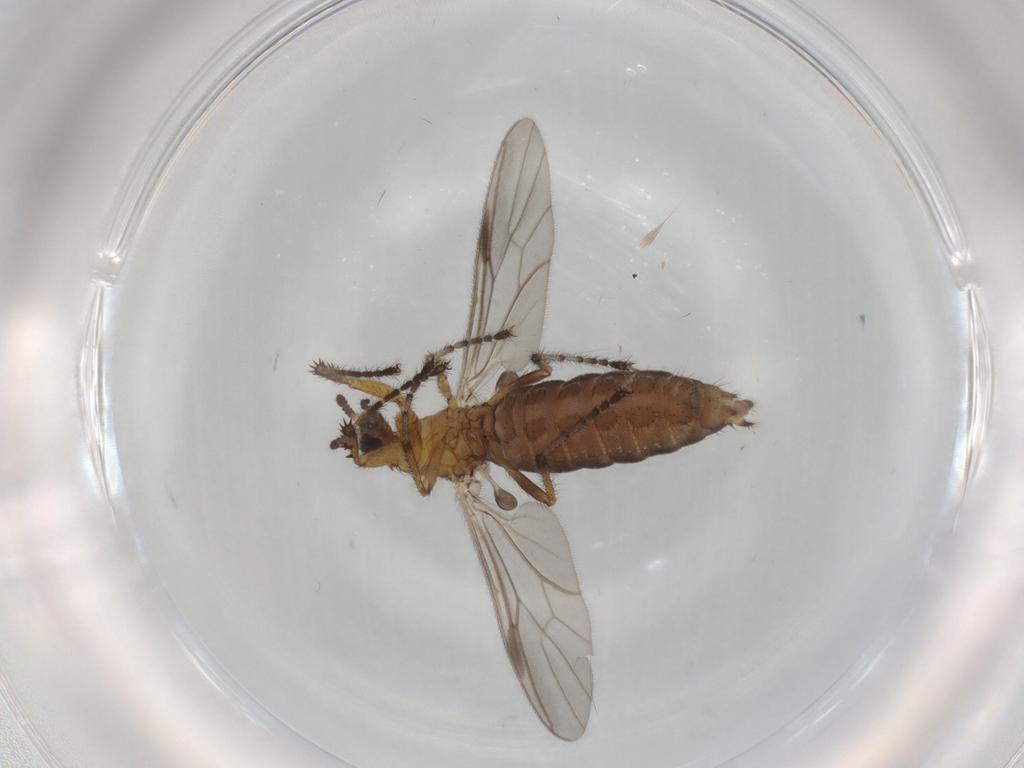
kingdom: Animalia
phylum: Arthropoda
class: Insecta
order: Diptera
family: Bibionidae
